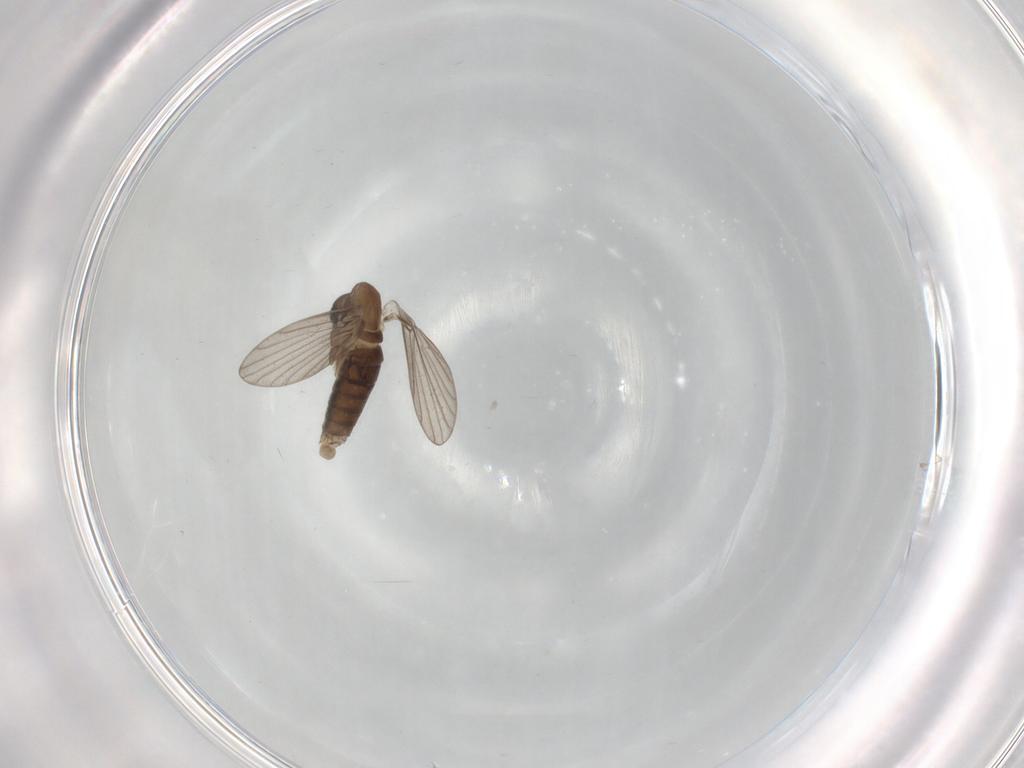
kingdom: Animalia
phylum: Arthropoda
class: Insecta
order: Diptera
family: Psychodidae
